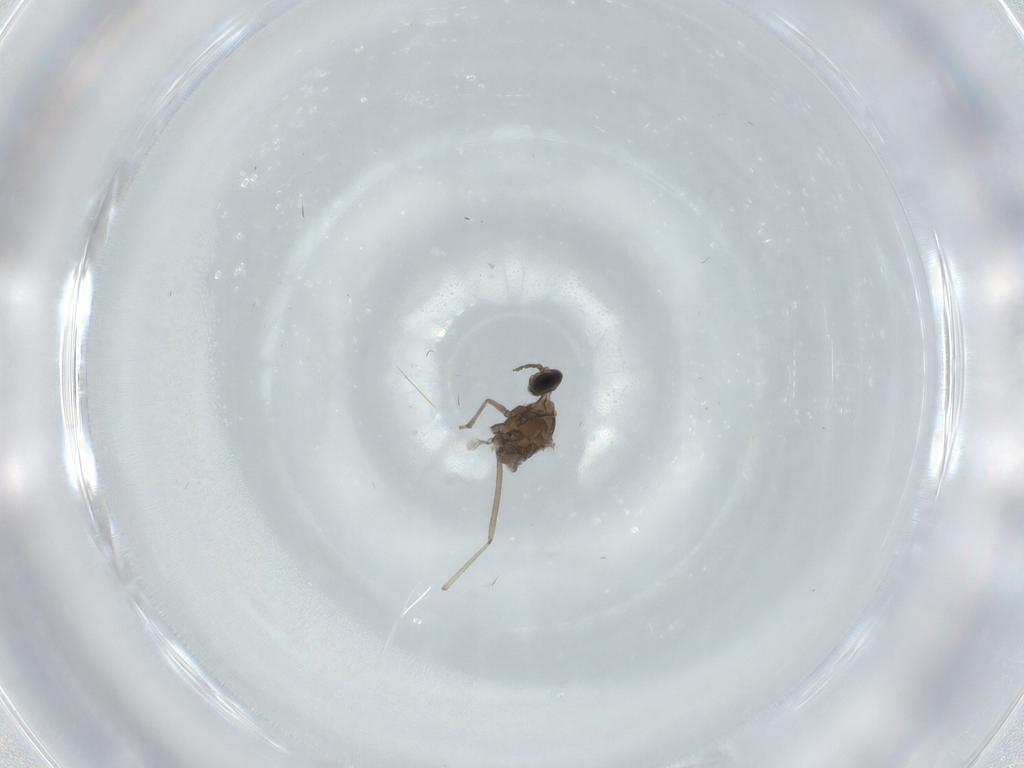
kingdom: Animalia
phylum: Arthropoda
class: Insecta
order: Diptera
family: Cecidomyiidae
